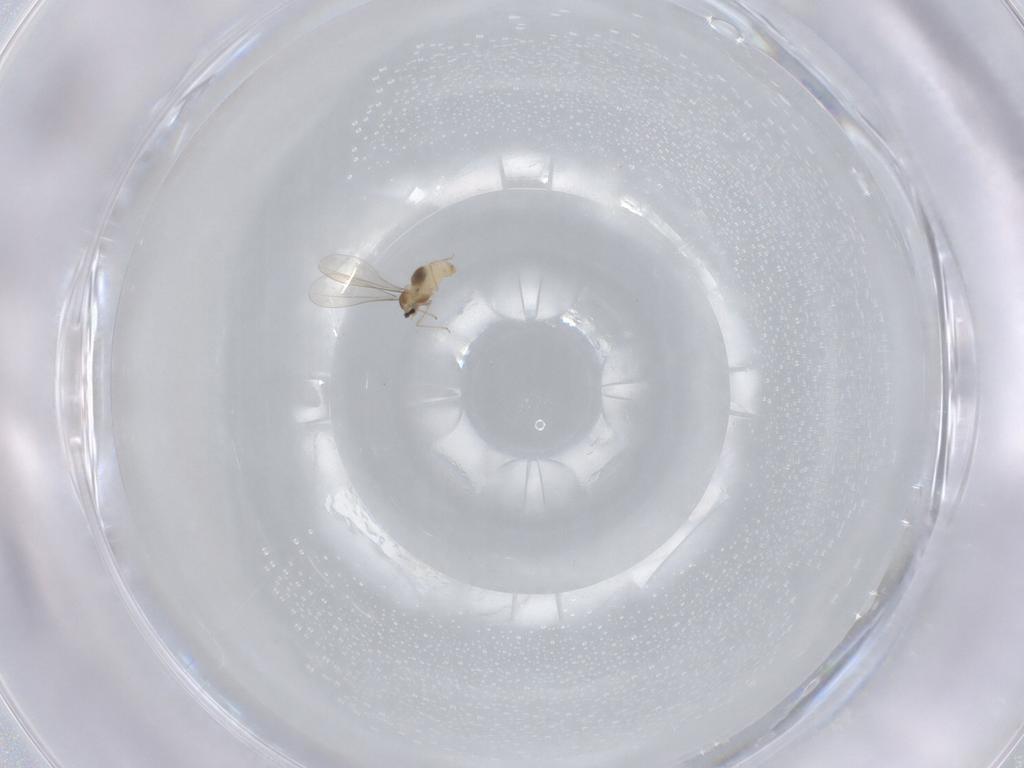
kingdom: Animalia
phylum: Arthropoda
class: Insecta
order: Diptera
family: Cecidomyiidae
